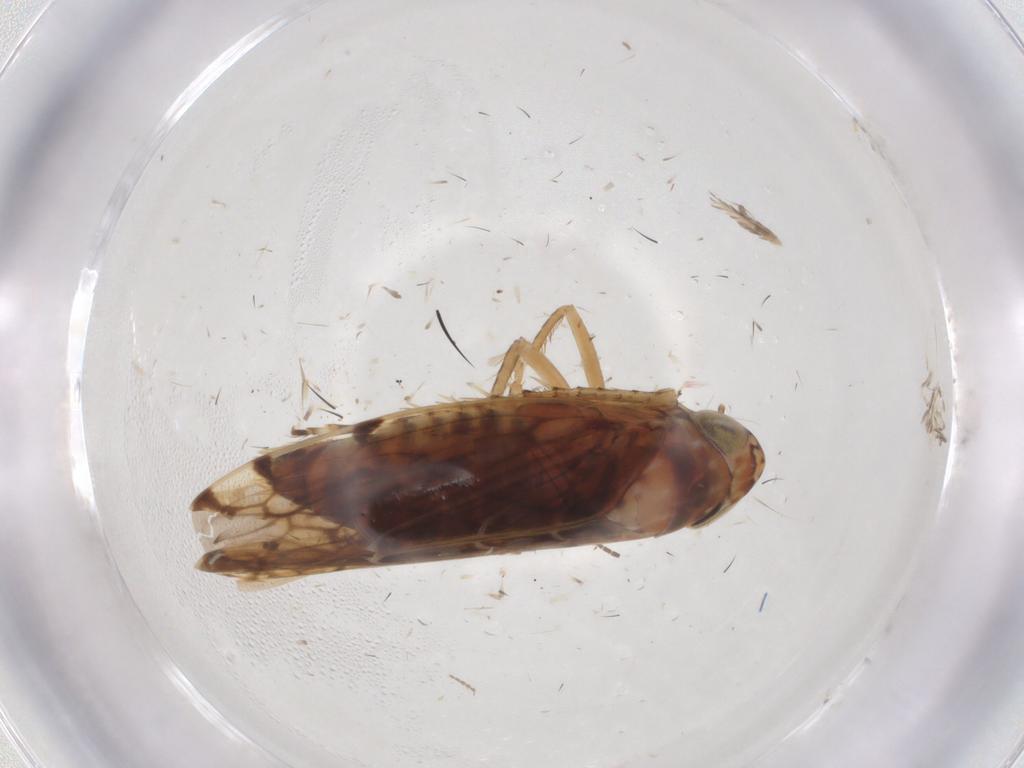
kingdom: Animalia
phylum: Arthropoda
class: Insecta
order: Hemiptera
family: Cicadellidae
